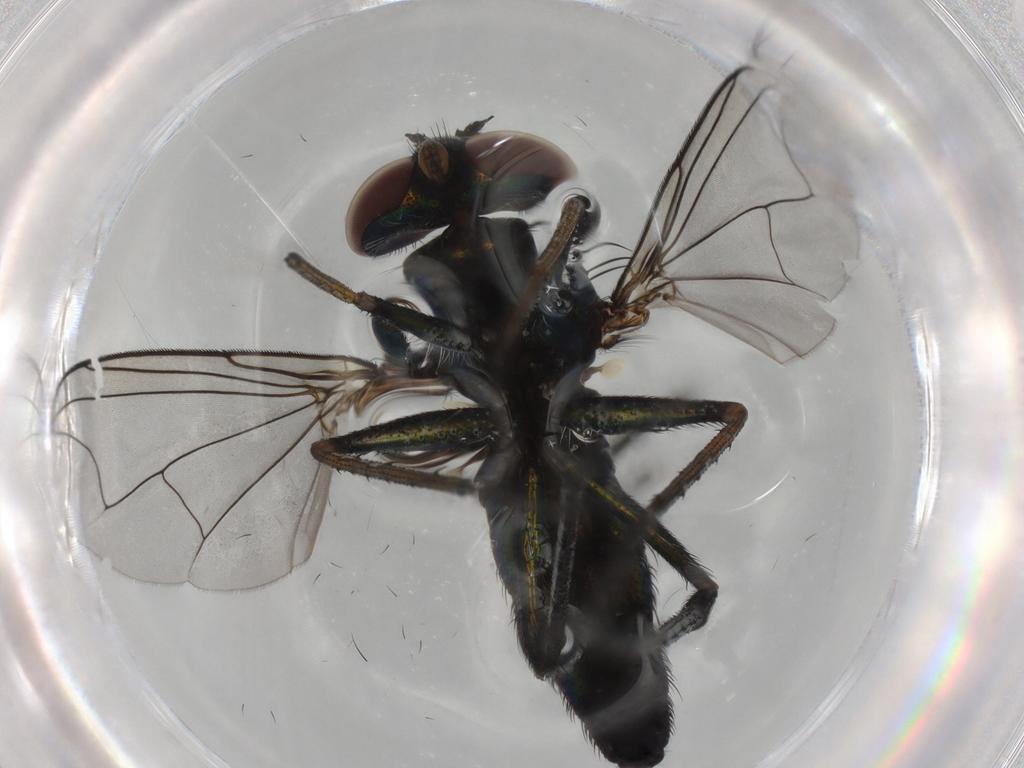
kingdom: Animalia
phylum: Arthropoda
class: Insecta
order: Diptera
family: Dolichopodidae
